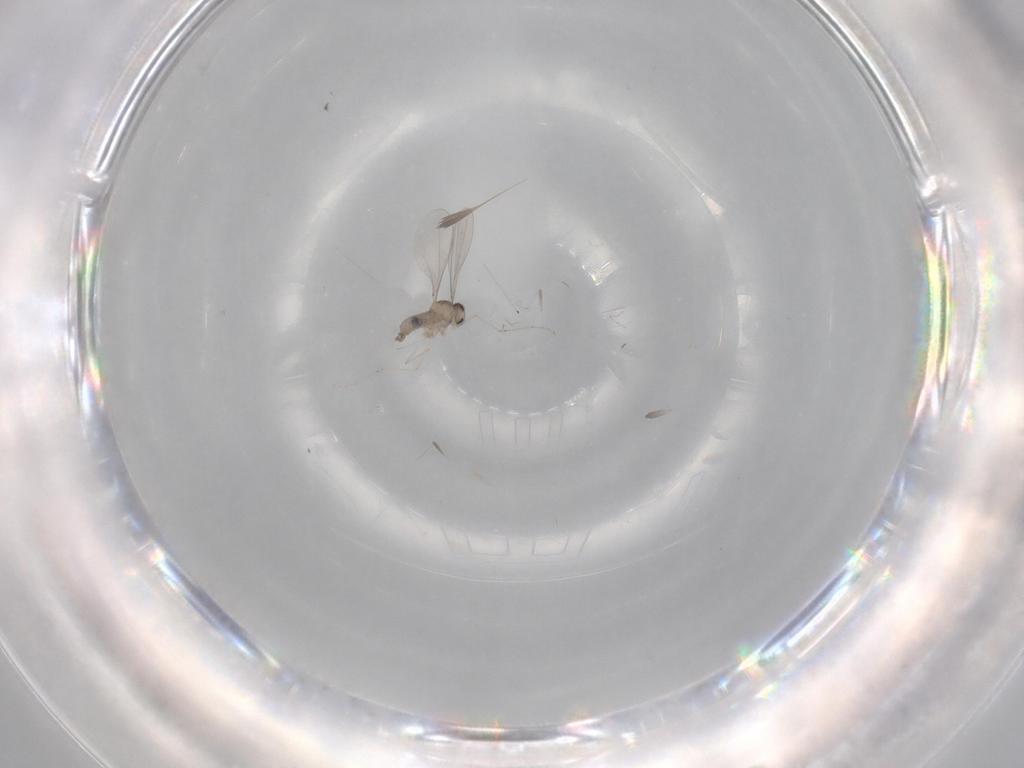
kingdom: Animalia
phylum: Arthropoda
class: Insecta
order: Diptera
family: Cecidomyiidae
